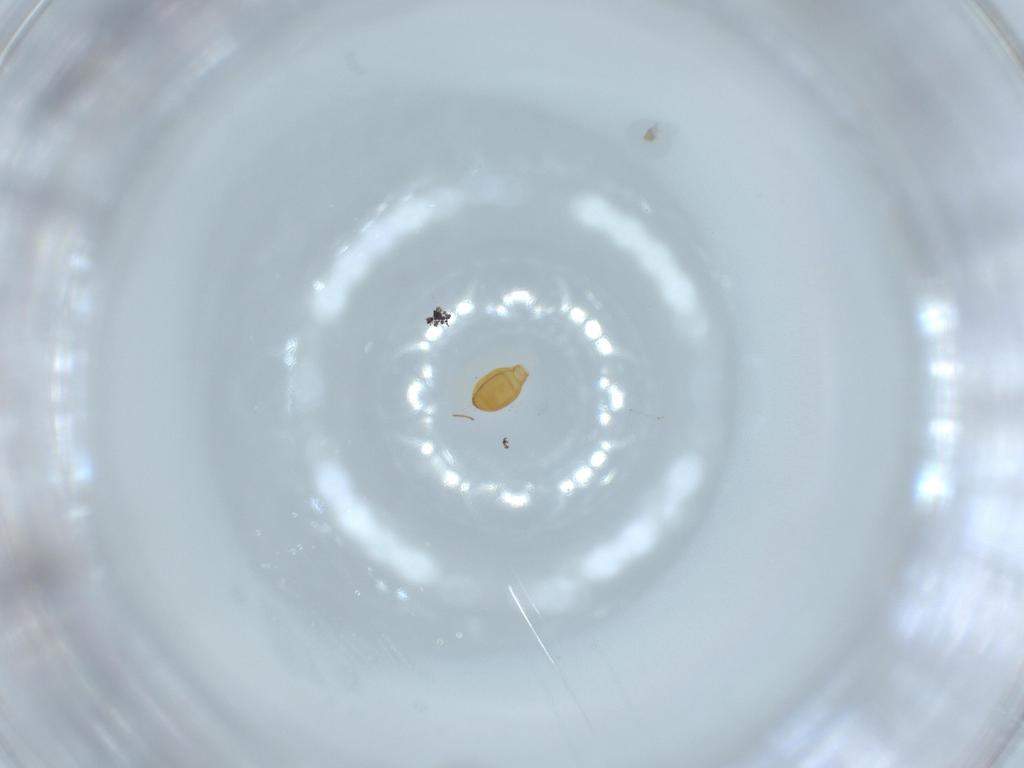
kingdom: Animalia
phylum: Arthropoda
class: Insecta
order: Hymenoptera
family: Scelionidae
